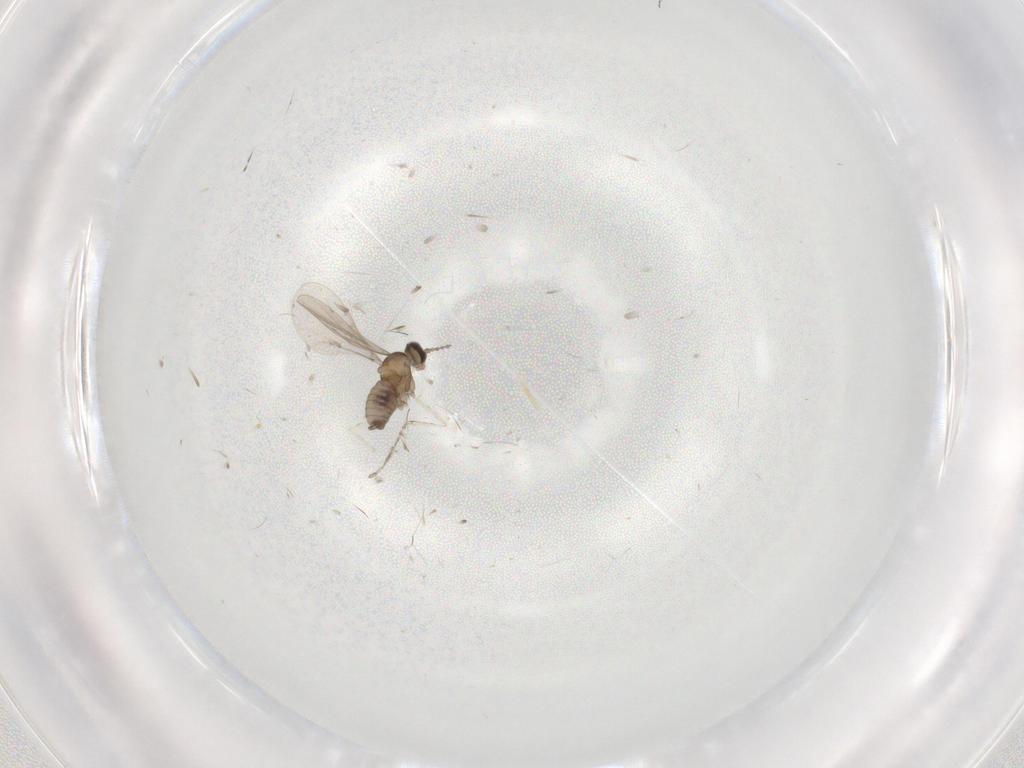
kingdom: Animalia
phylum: Arthropoda
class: Insecta
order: Diptera
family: Cecidomyiidae
